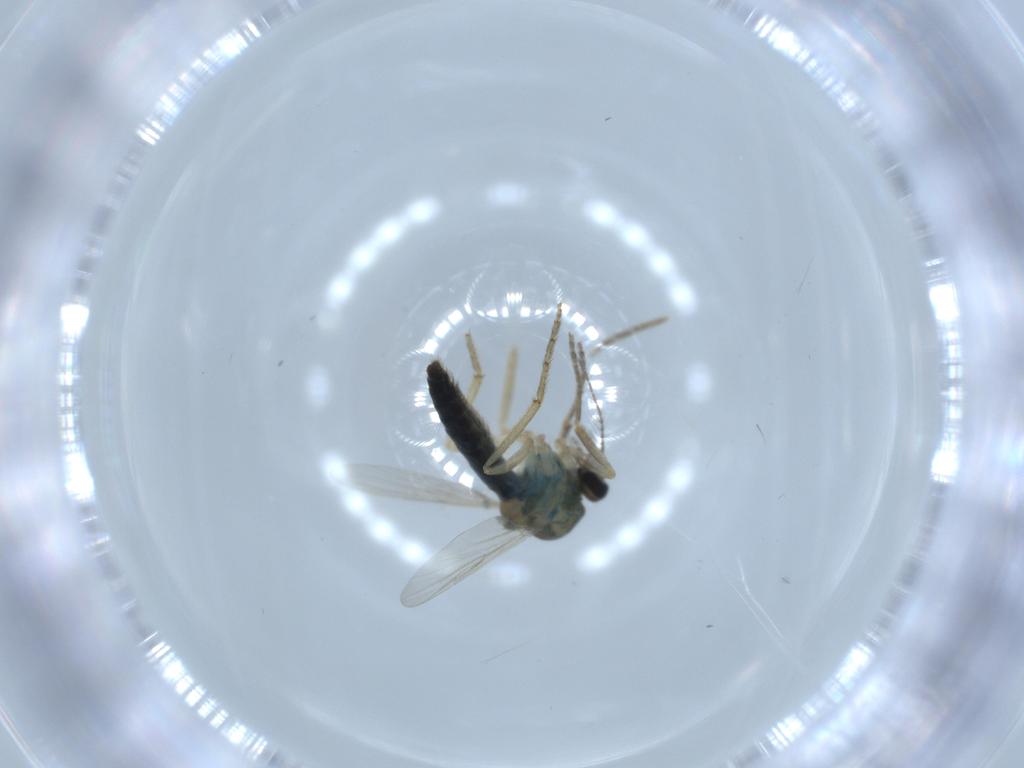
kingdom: Animalia
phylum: Arthropoda
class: Insecta
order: Diptera
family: Ceratopogonidae
